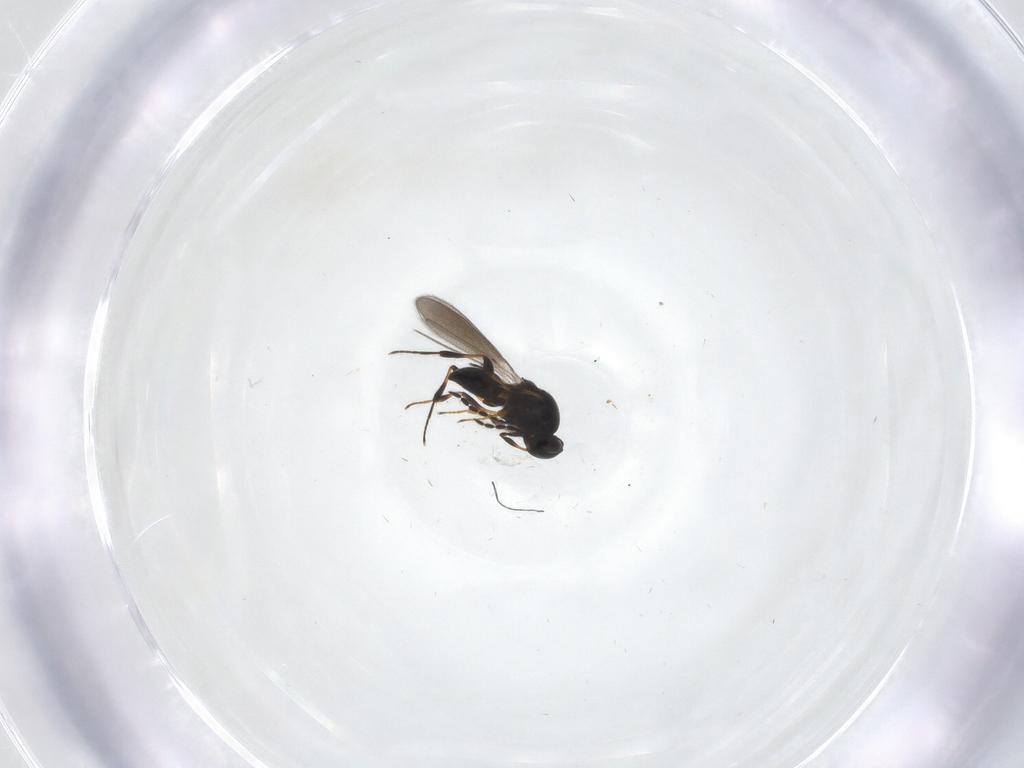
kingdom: Animalia
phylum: Arthropoda
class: Insecta
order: Hymenoptera
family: Platygastridae
